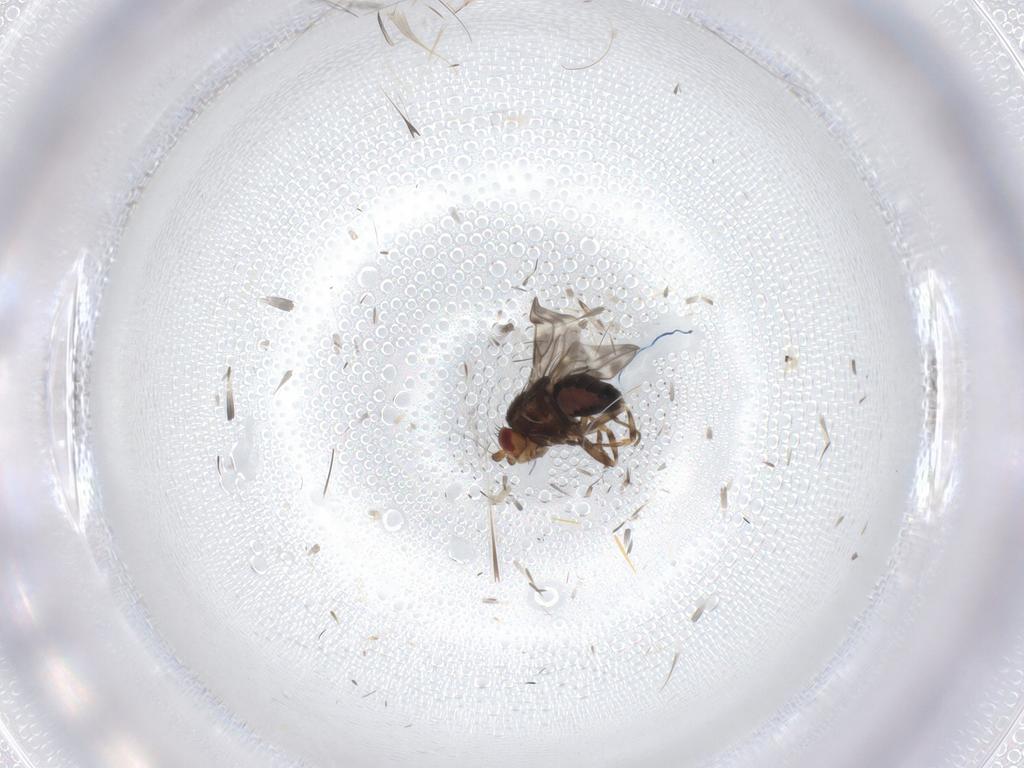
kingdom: Animalia
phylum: Arthropoda
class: Insecta
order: Diptera
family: Sphaeroceridae
